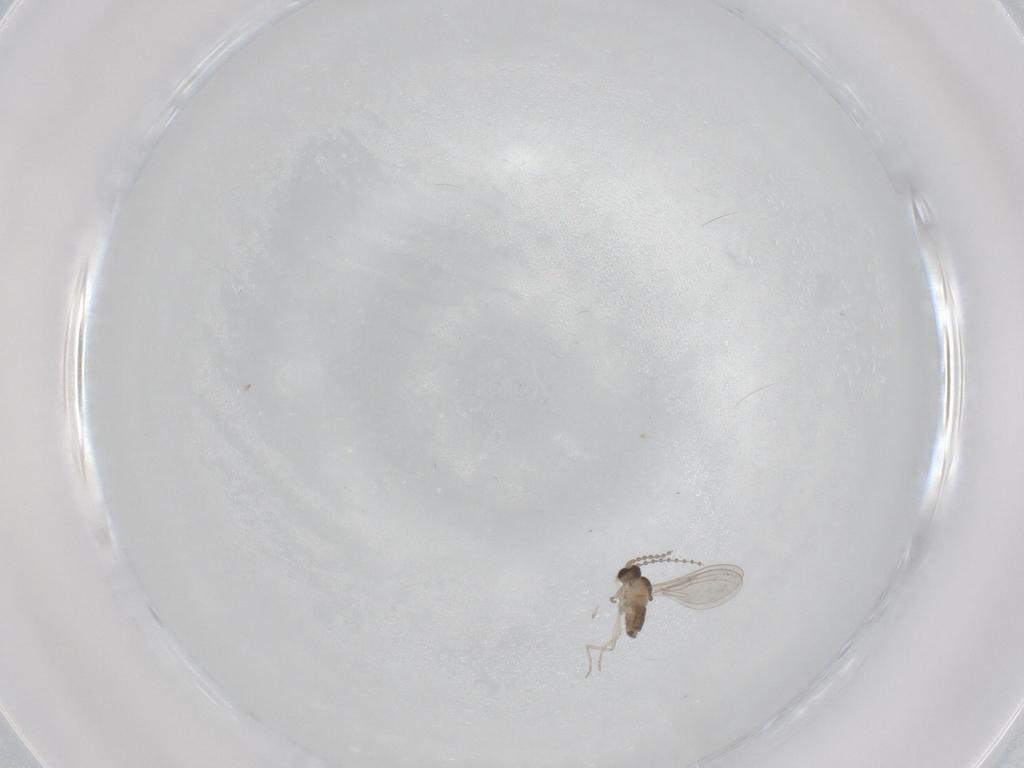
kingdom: Animalia
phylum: Arthropoda
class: Insecta
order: Diptera
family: Cecidomyiidae
